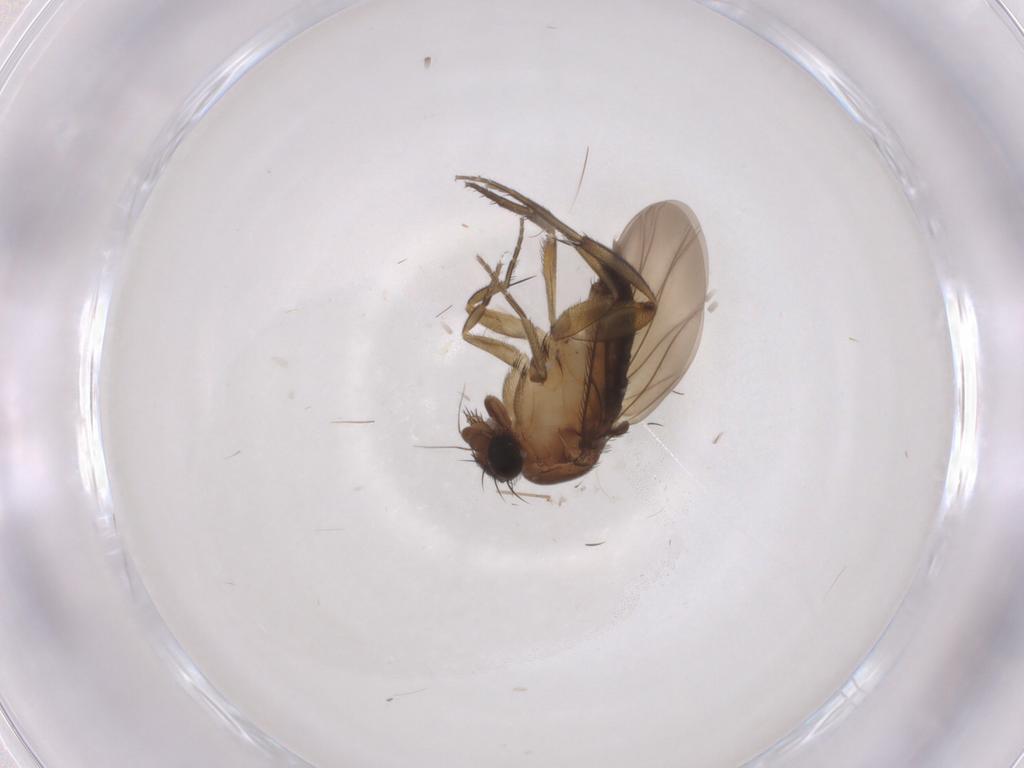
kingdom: Animalia
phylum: Arthropoda
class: Insecta
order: Diptera
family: Phoridae
